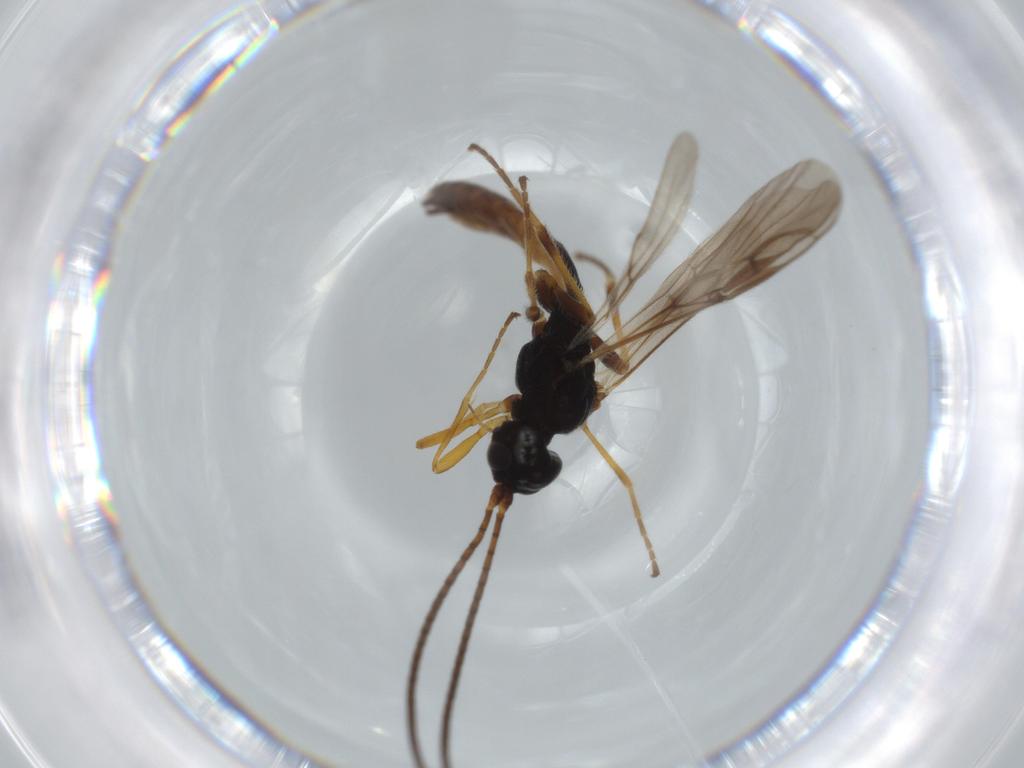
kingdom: Animalia
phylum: Arthropoda
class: Insecta
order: Hymenoptera
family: Braconidae
